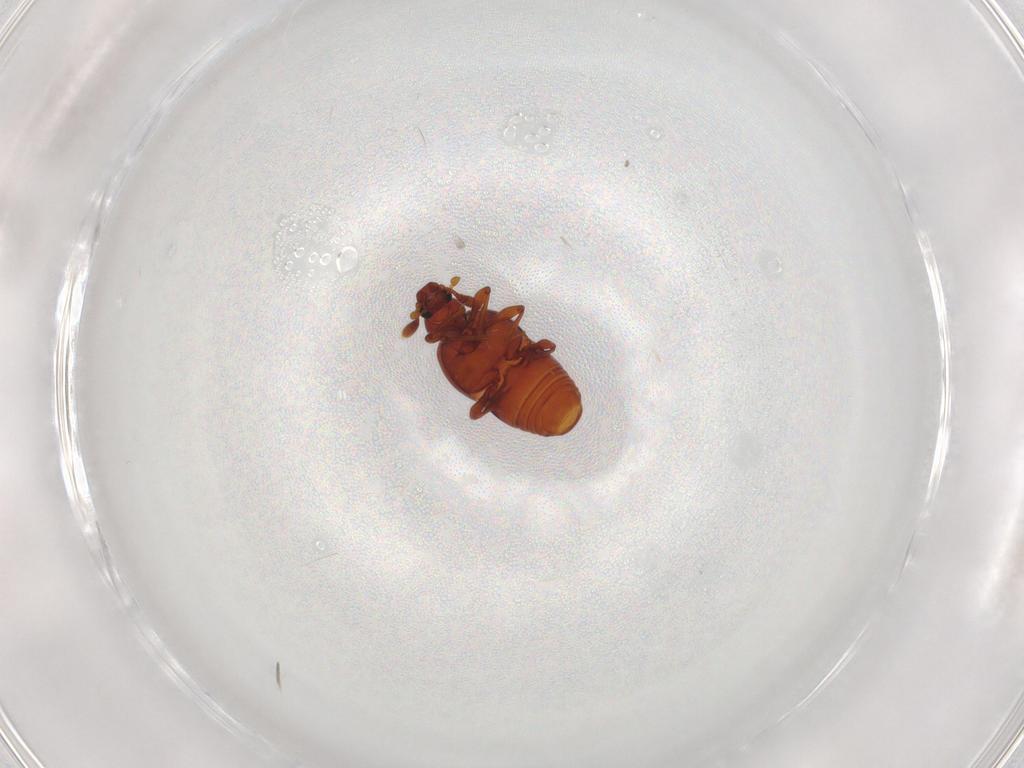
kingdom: Animalia
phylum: Arthropoda
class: Insecta
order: Coleoptera
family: Staphylinidae
